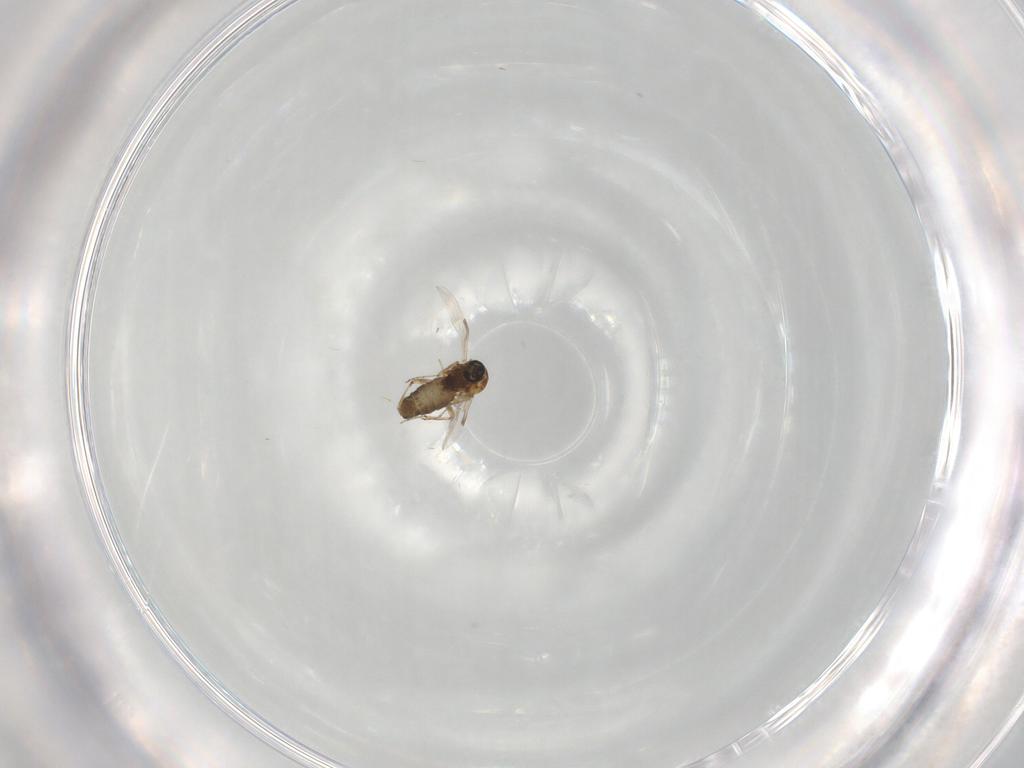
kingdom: Animalia
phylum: Arthropoda
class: Insecta
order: Diptera
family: Ceratopogonidae
